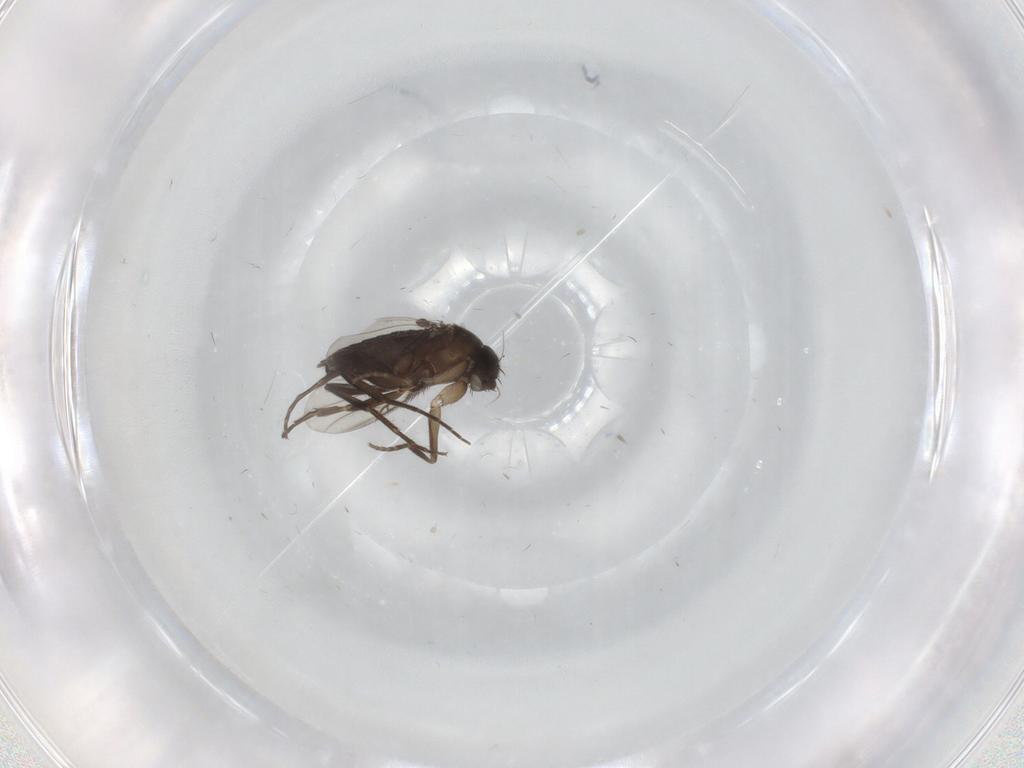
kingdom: Animalia
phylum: Arthropoda
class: Insecta
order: Diptera
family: Phoridae
